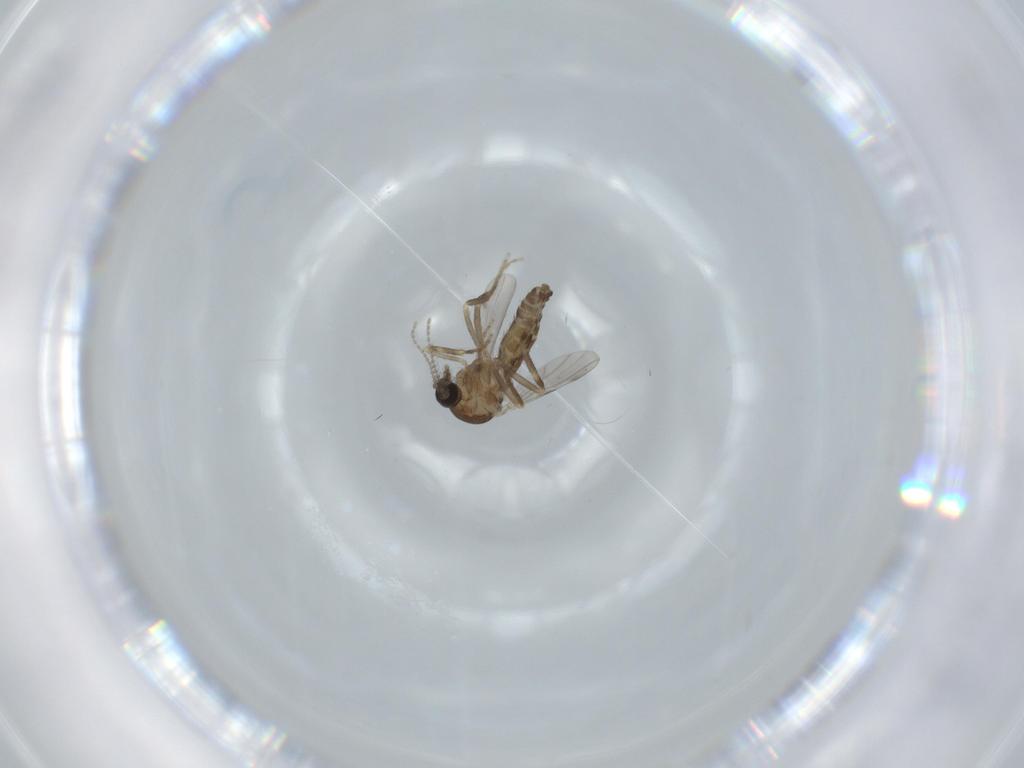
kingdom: Animalia
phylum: Arthropoda
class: Insecta
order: Diptera
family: Ceratopogonidae
